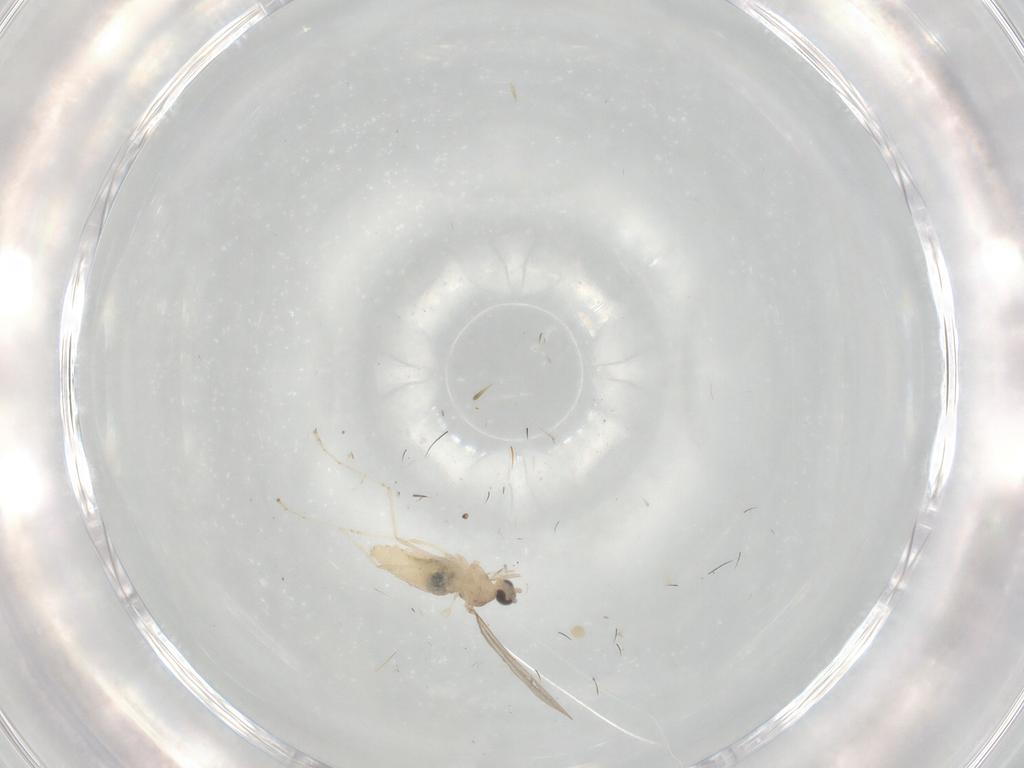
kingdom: Animalia
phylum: Arthropoda
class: Insecta
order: Diptera
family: Cecidomyiidae
